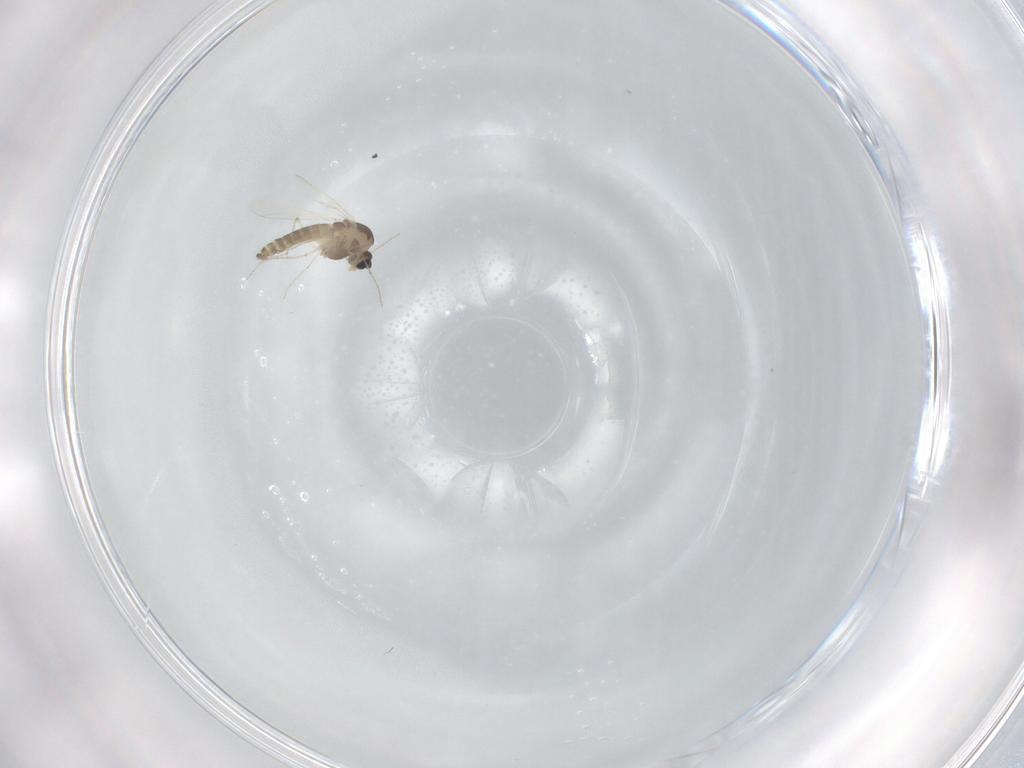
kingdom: Animalia
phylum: Arthropoda
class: Insecta
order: Diptera
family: Chironomidae
